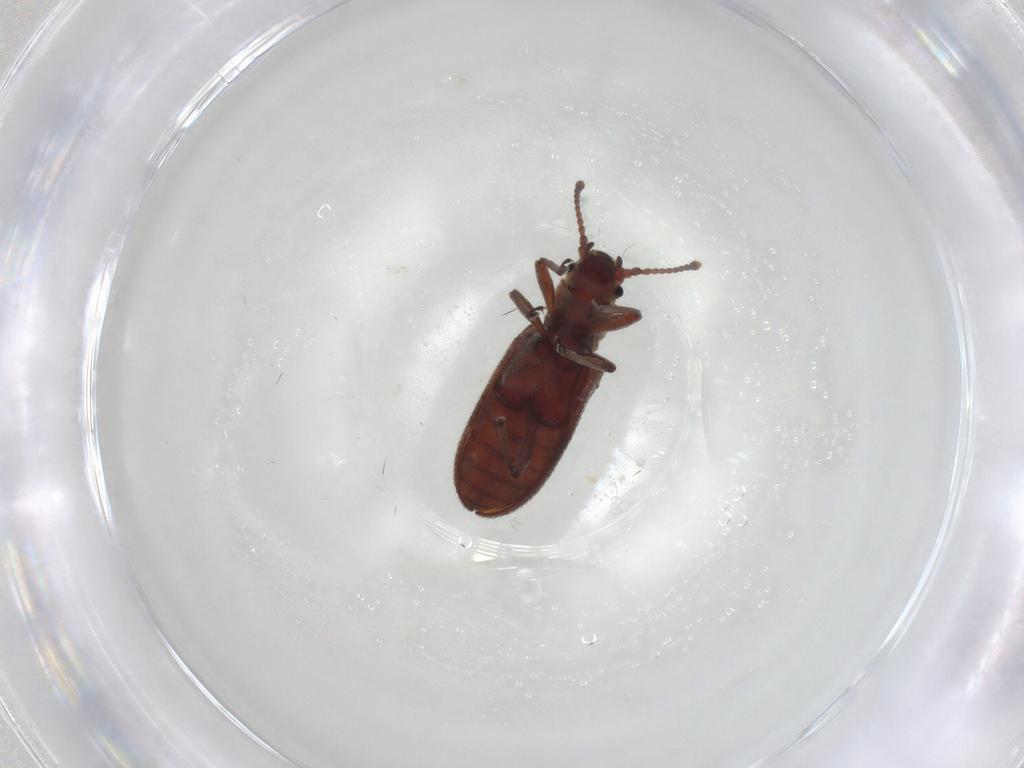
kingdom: Animalia
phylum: Arthropoda
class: Insecta
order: Coleoptera
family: Zopheridae
